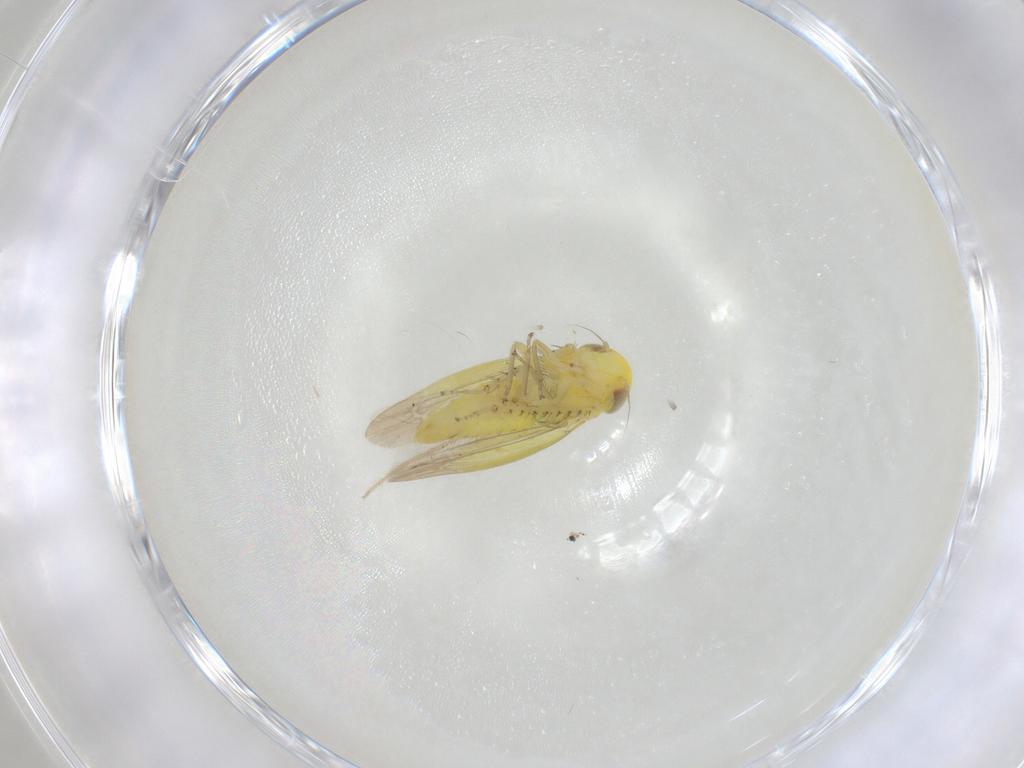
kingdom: Animalia
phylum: Arthropoda
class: Insecta
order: Hemiptera
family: Cicadellidae
